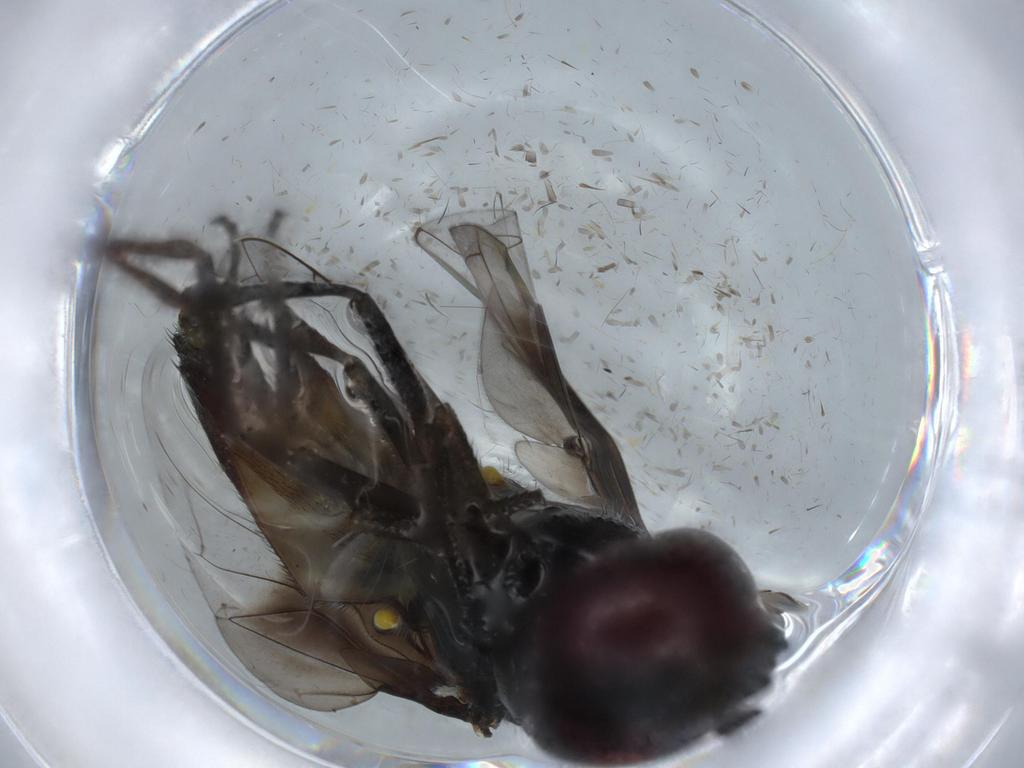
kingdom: Animalia
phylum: Arthropoda
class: Insecta
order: Diptera
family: Syrphidae
